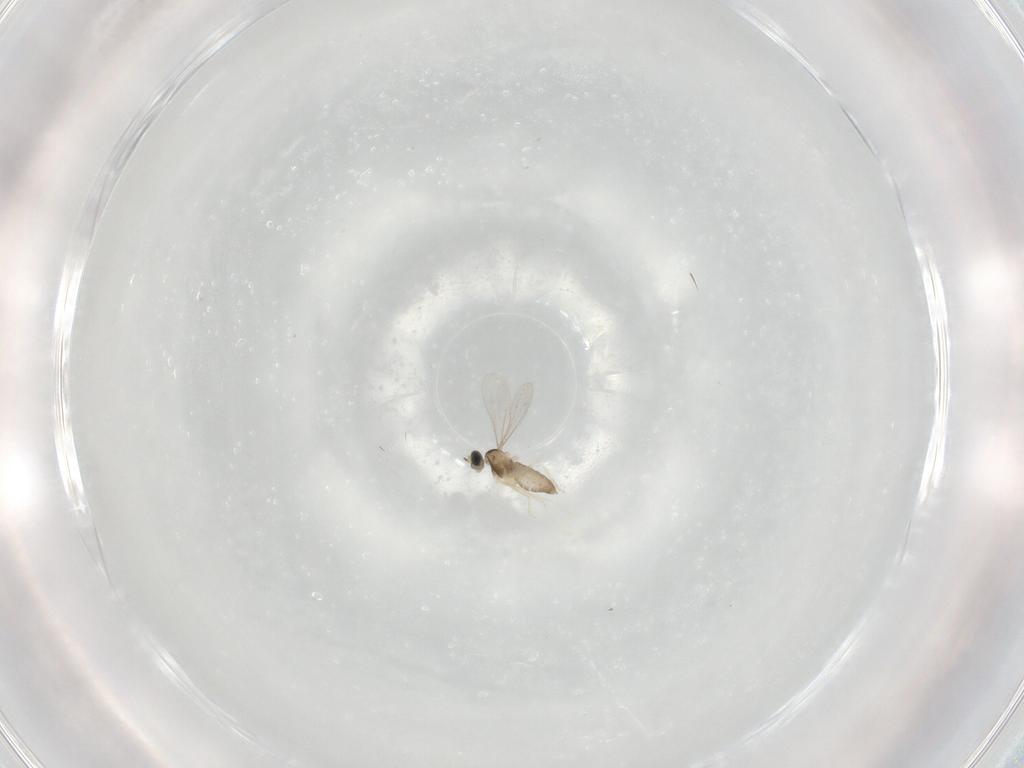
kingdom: Animalia
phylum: Arthropoda
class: Insecta
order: Diptera
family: Cecidomyiidae
